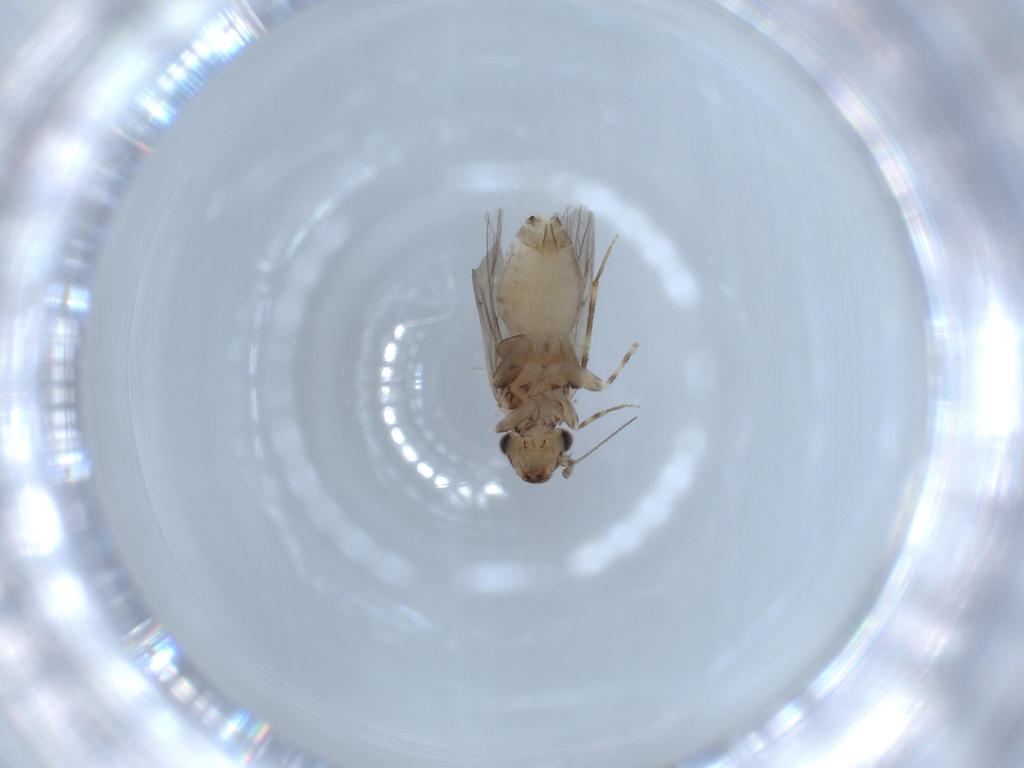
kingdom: Animalia
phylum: Arthropoda
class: Insecta
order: Psocodea
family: Lepidopsocidae
